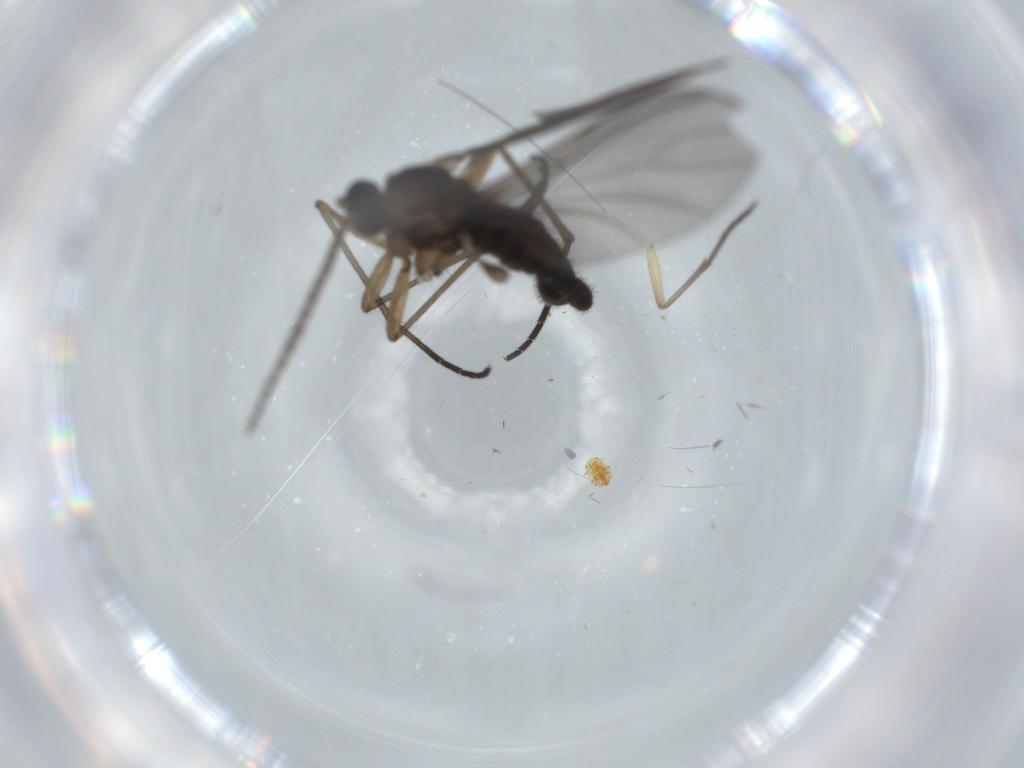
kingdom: Animalia
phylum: Arthropoda
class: Insecta
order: Diptera
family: Sciaridae
